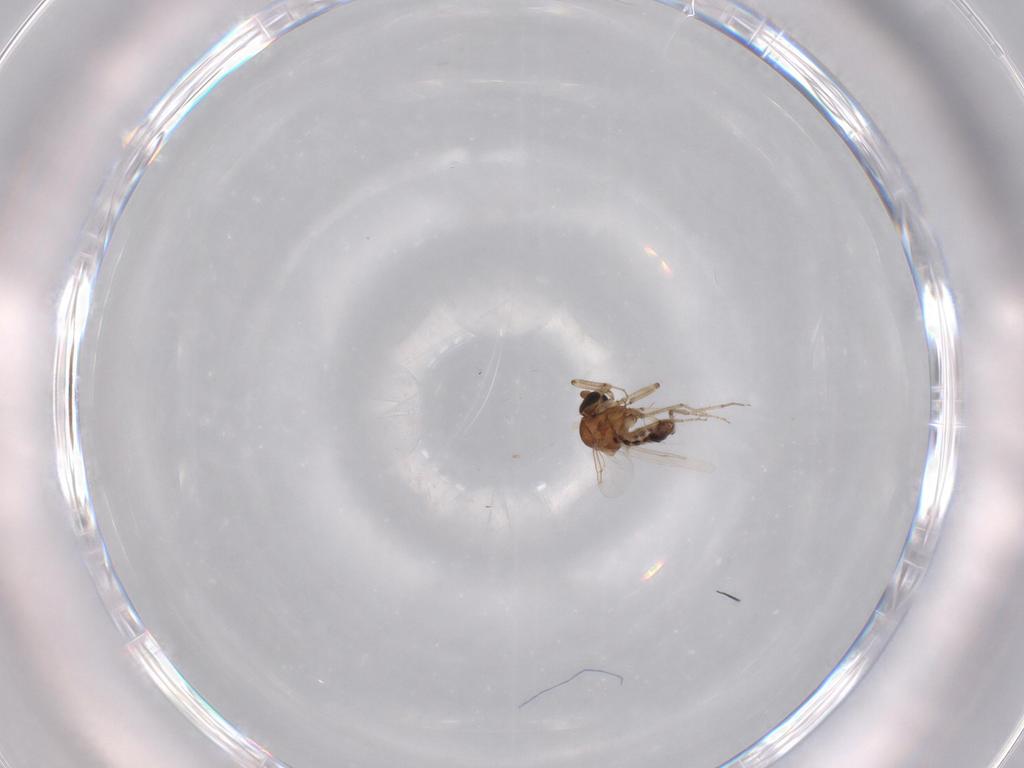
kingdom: Animalia
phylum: Arthropoda
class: Insecta
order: Diptera
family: Ceratopogonidae
